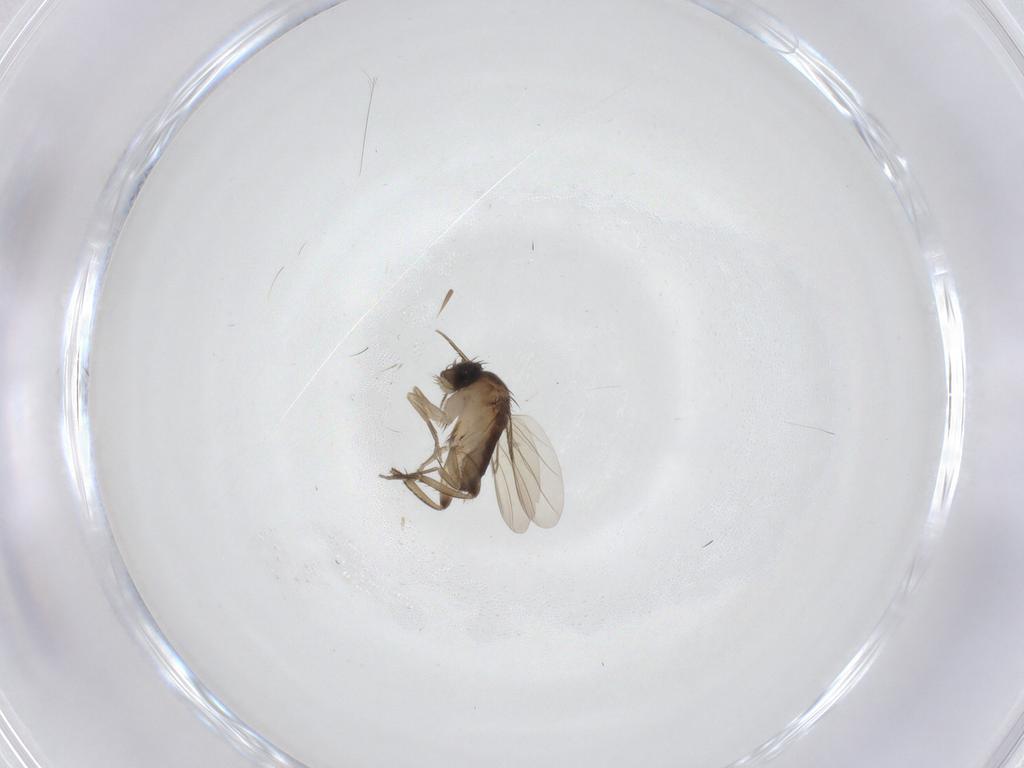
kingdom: Animalia
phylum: Arthropoda
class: Insecta
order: Diptera
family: Phoridae
